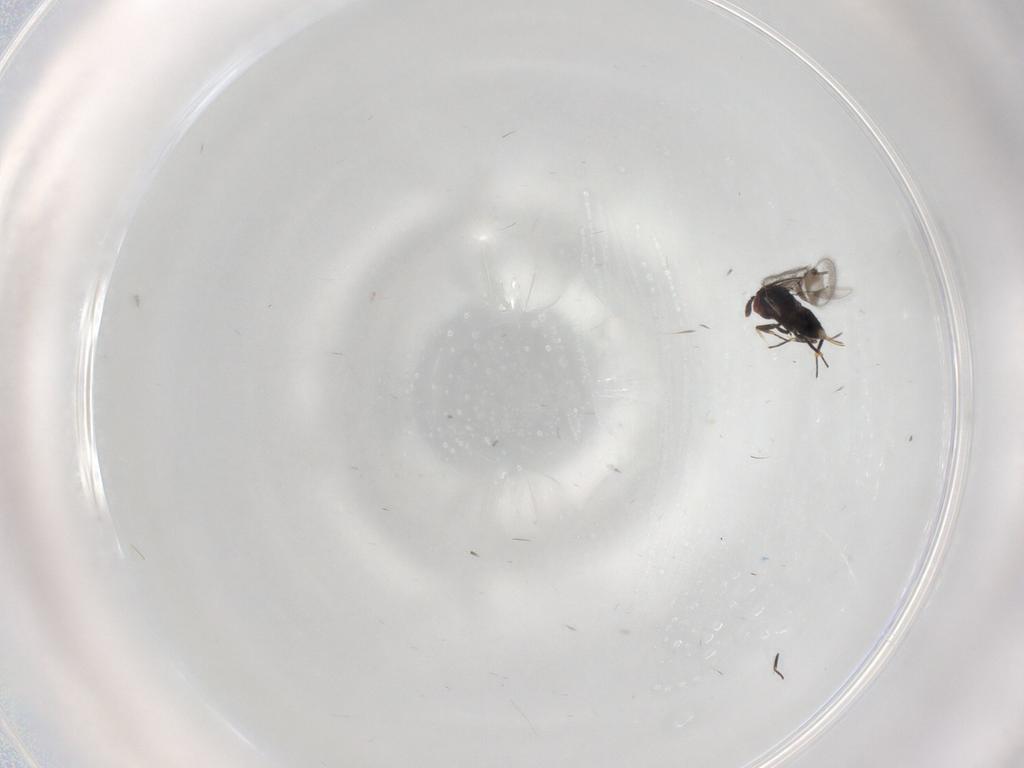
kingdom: Animalia
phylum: Arthropoda
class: Insecta
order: Hymenoptera
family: Eulophidae
